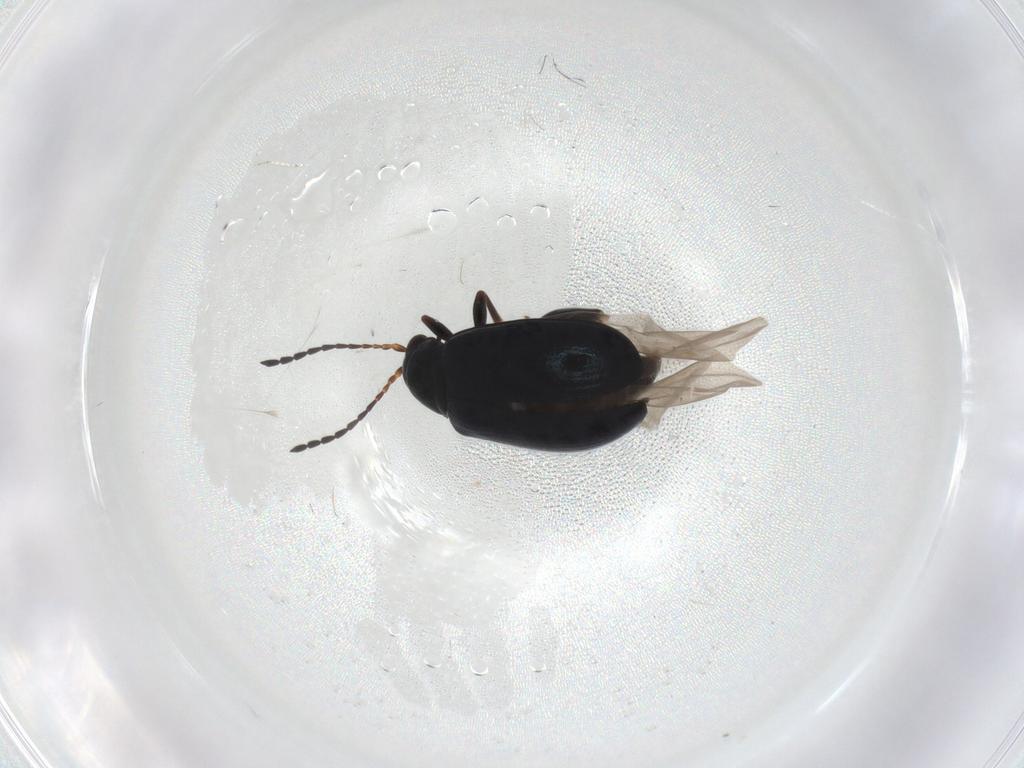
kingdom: Animalia
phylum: Arthropoda
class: Insecta
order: Coleoptera
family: Chrysomelidae
